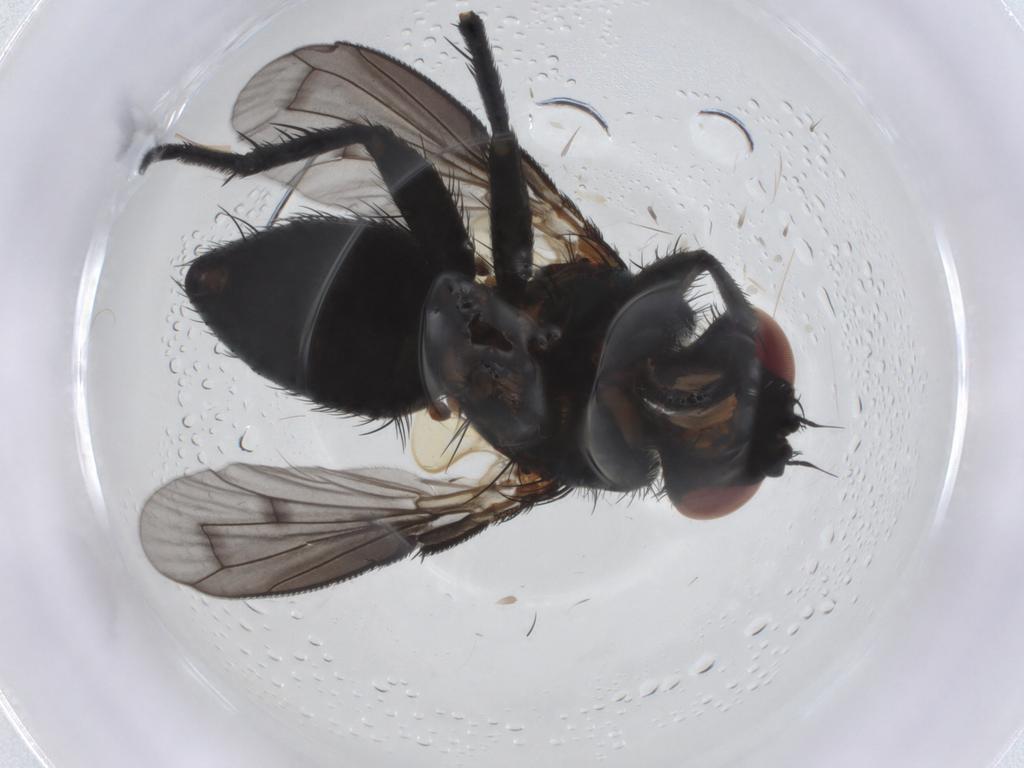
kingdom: Animalia
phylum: Arthropoda
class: Insecta
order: Diptera
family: Tachinidae
